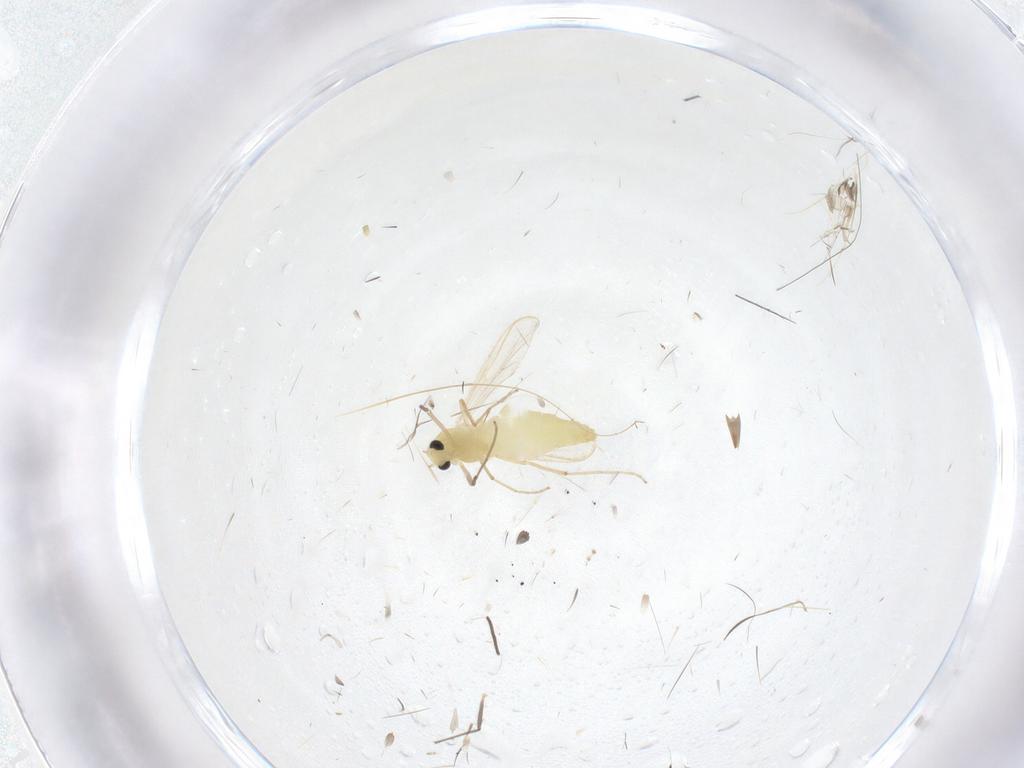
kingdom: Animalia
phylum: Arthropoda
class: Insecta
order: Diptera
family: Chironomidae
